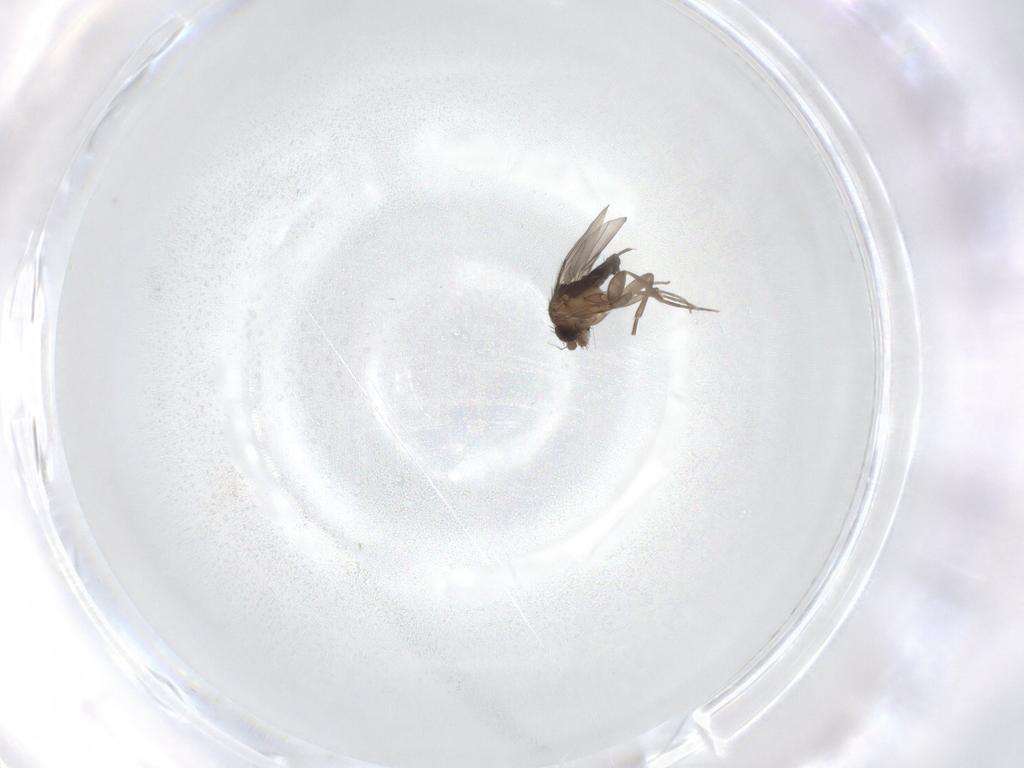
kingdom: Animalia
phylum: Arthropoda
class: Insecta
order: Diptera
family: Phoridae
